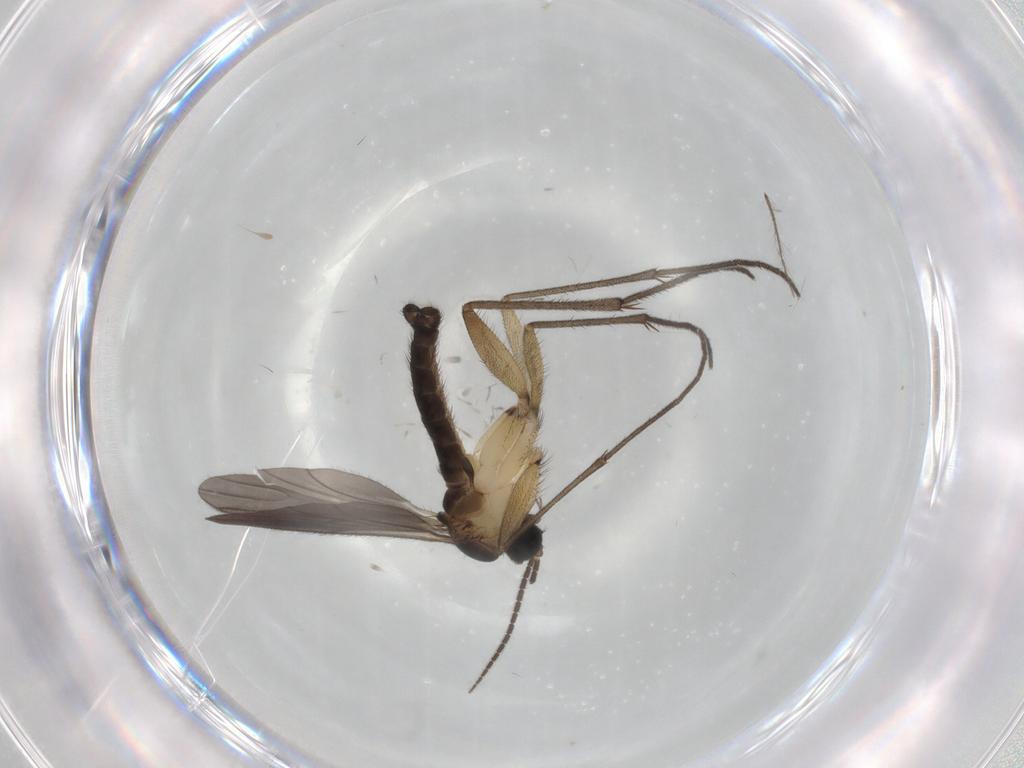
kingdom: Animalia
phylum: Arthropoda
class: Insecta
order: Diptera
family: Sciaridae
